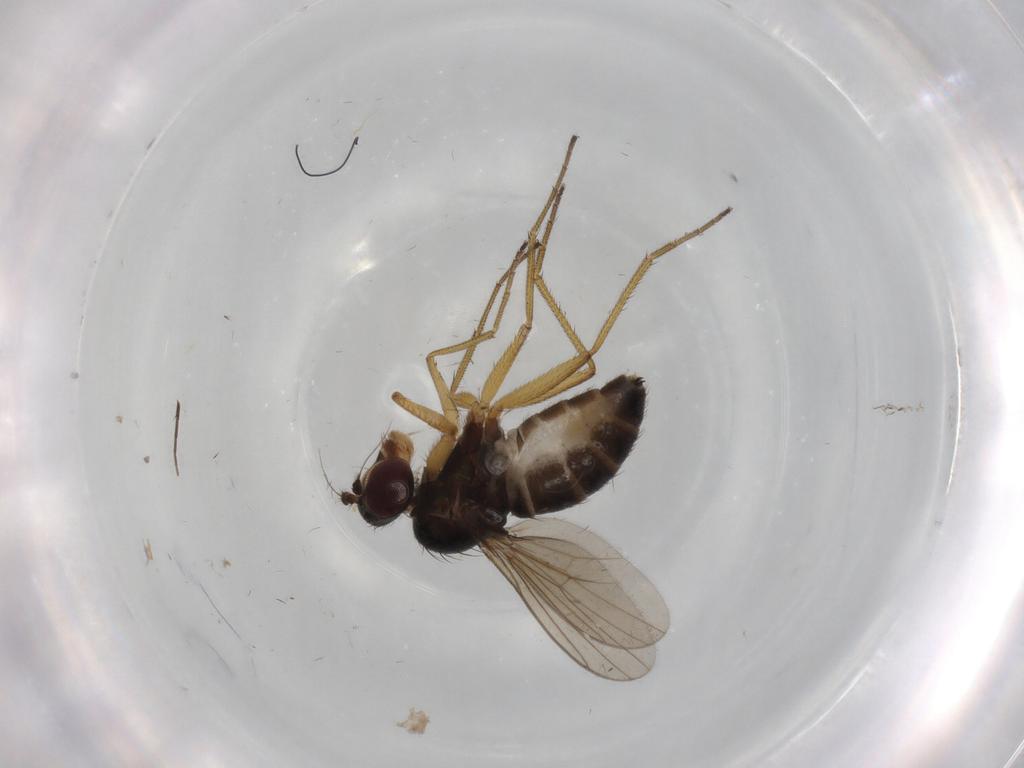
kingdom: Animalia
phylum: Arthropoda
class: Insecta
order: Diptera
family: Dolichopodidae
